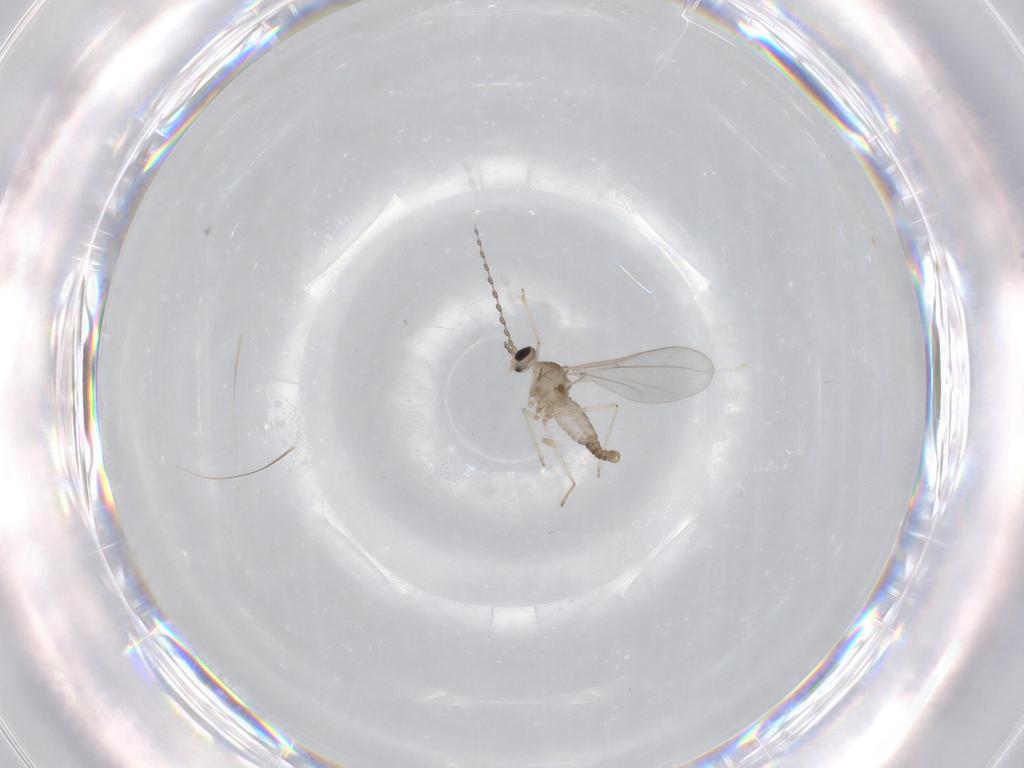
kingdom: Animalia
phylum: Arthropoda
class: Insecta
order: Diptera
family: Cecidomyiidae
